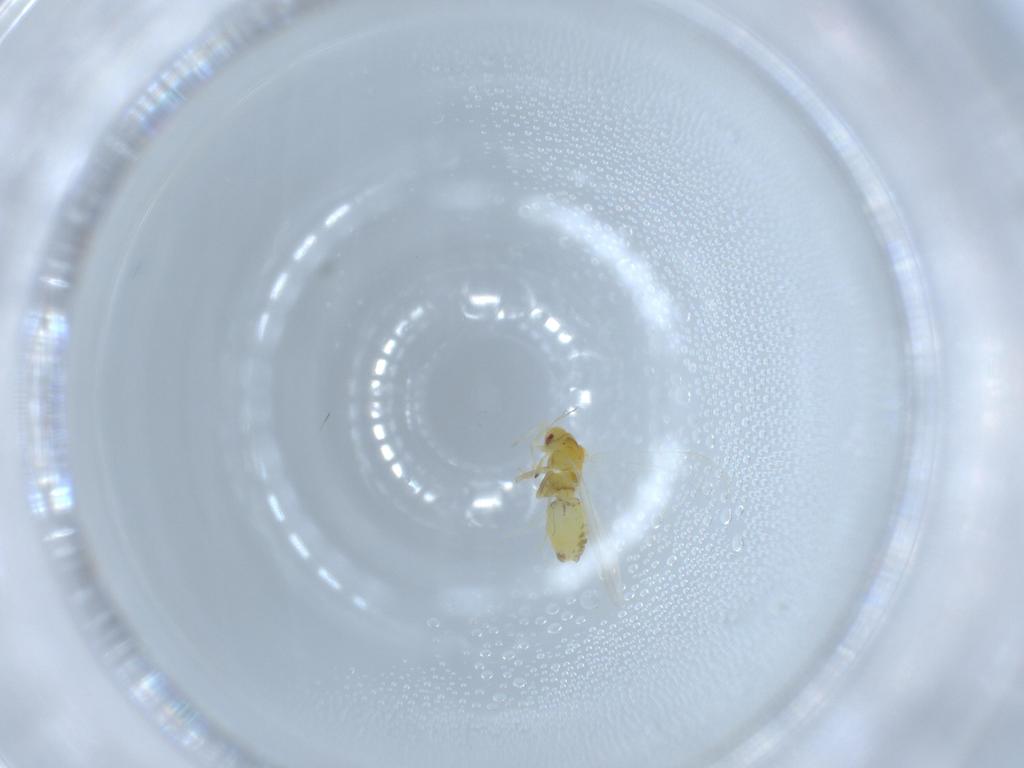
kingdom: Animalia
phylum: Arthropoda
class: Insecta
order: Hemiptera
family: Aleyrodidae
